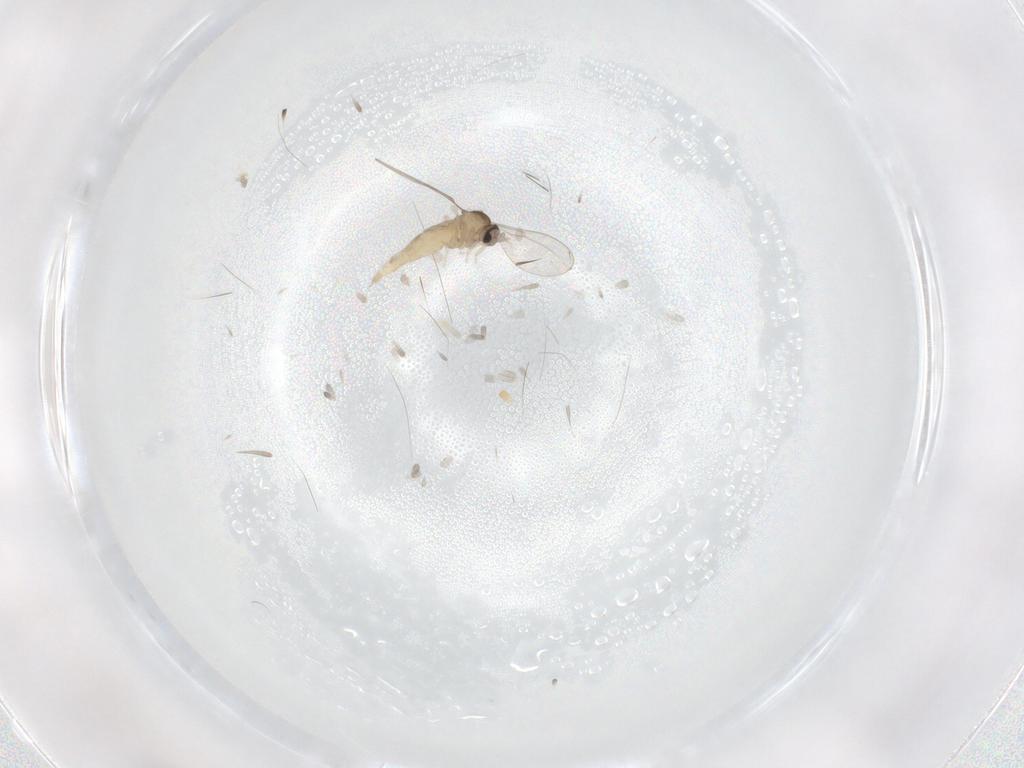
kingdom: Animalia
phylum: Arthropoda
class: Insecta
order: Diptera
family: Cecidomyiidae
